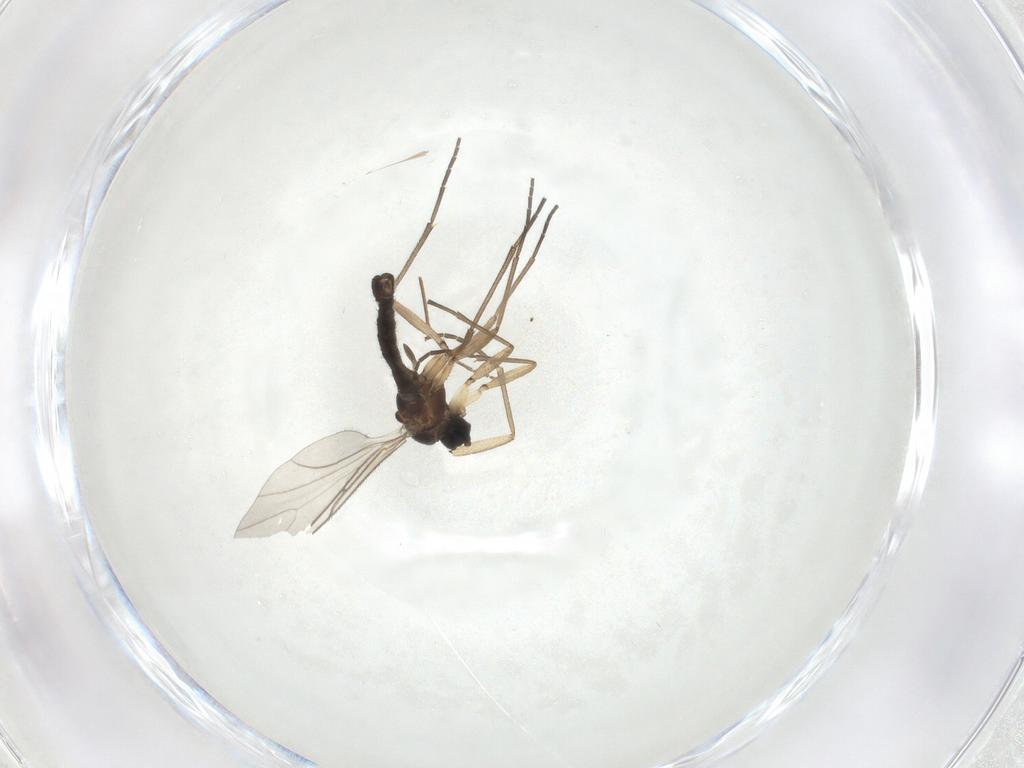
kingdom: Animalia
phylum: Arthropoda
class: Insecta
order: Diptera
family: Sciaridae
